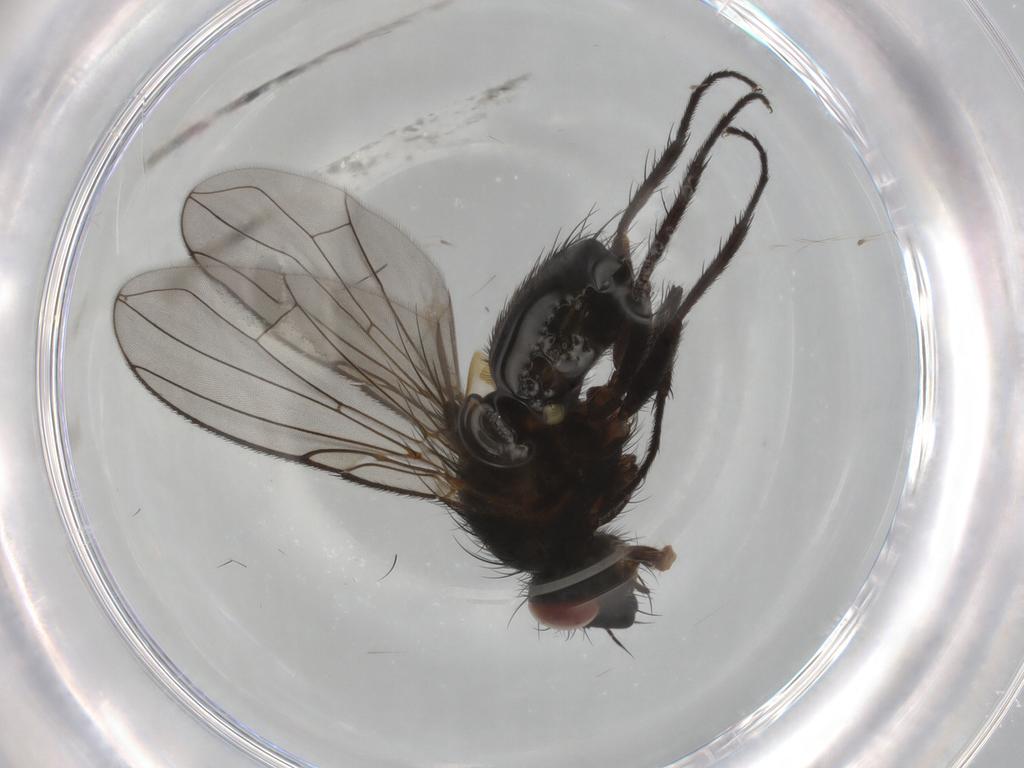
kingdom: Animalia
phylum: Arthropoda
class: Insecta
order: Diptera
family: Tachinidae
